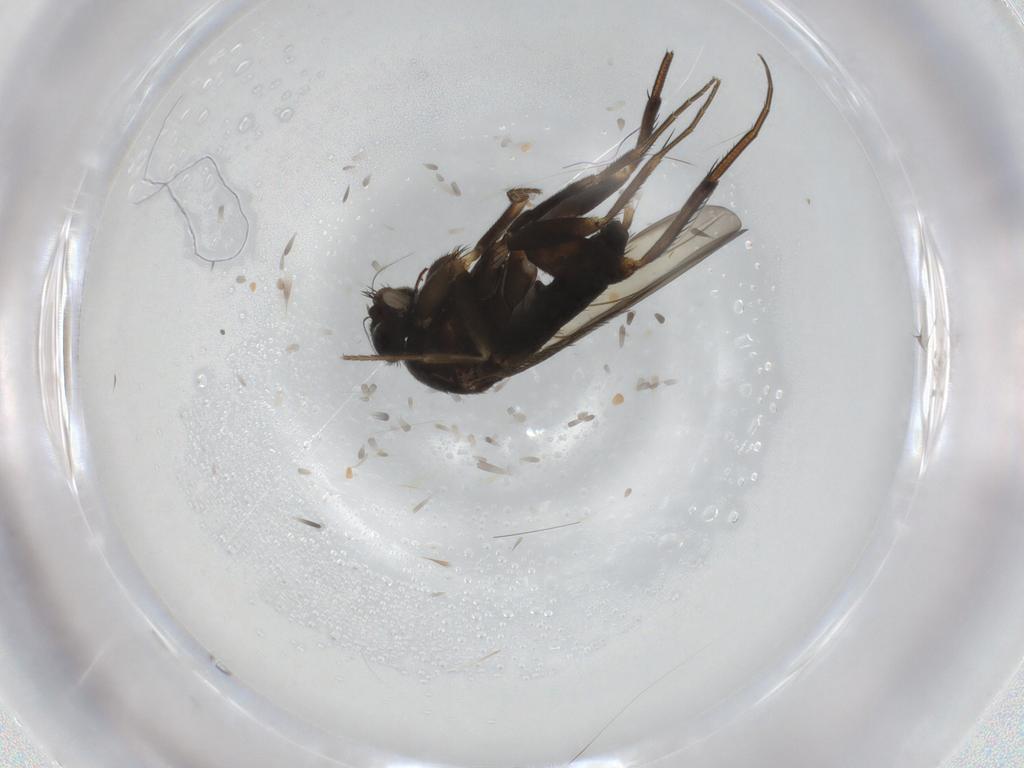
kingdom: Animalia
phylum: Arthropoda
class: Insecta
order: Diptera
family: Phoridae
